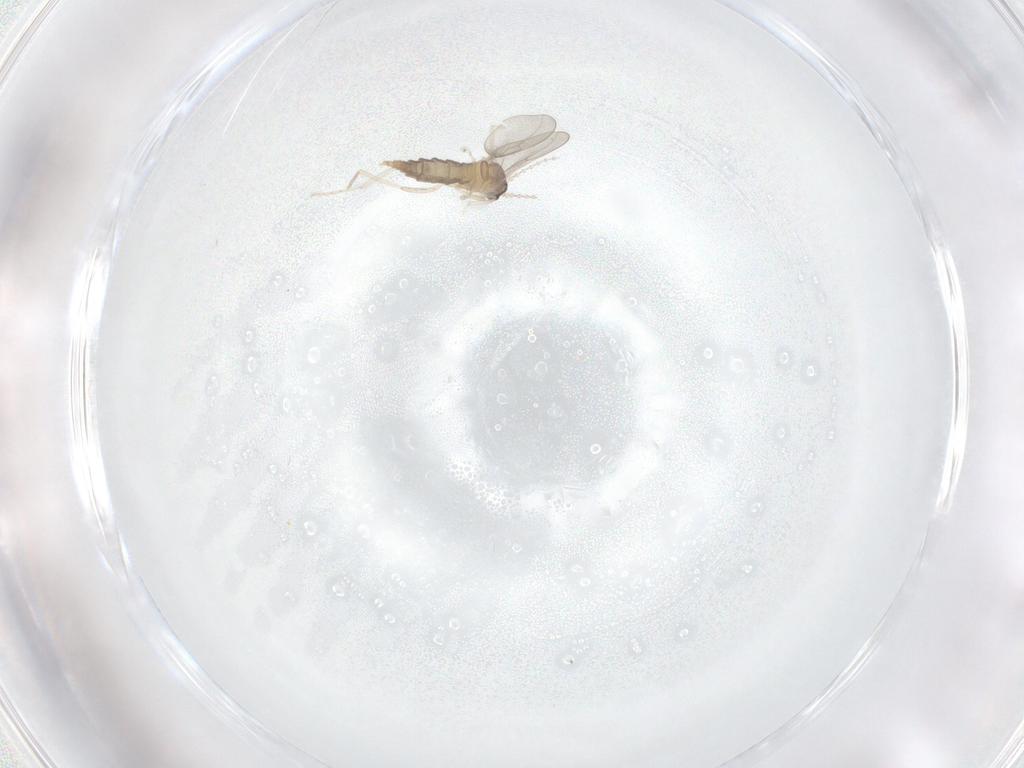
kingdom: Animalia
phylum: Arthropoda
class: Insecta
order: Diptera
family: Cecidomyiidae
